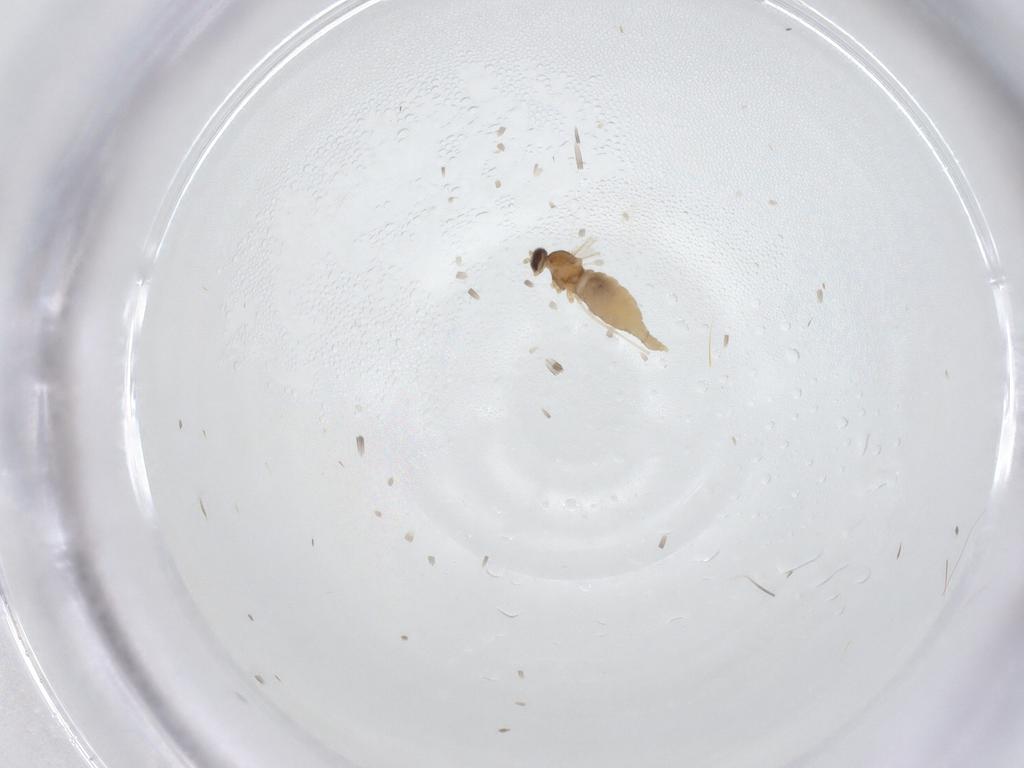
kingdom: Animalia
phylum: Arthropoda
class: Insecta
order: Diptera
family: Cecidomyiidae
